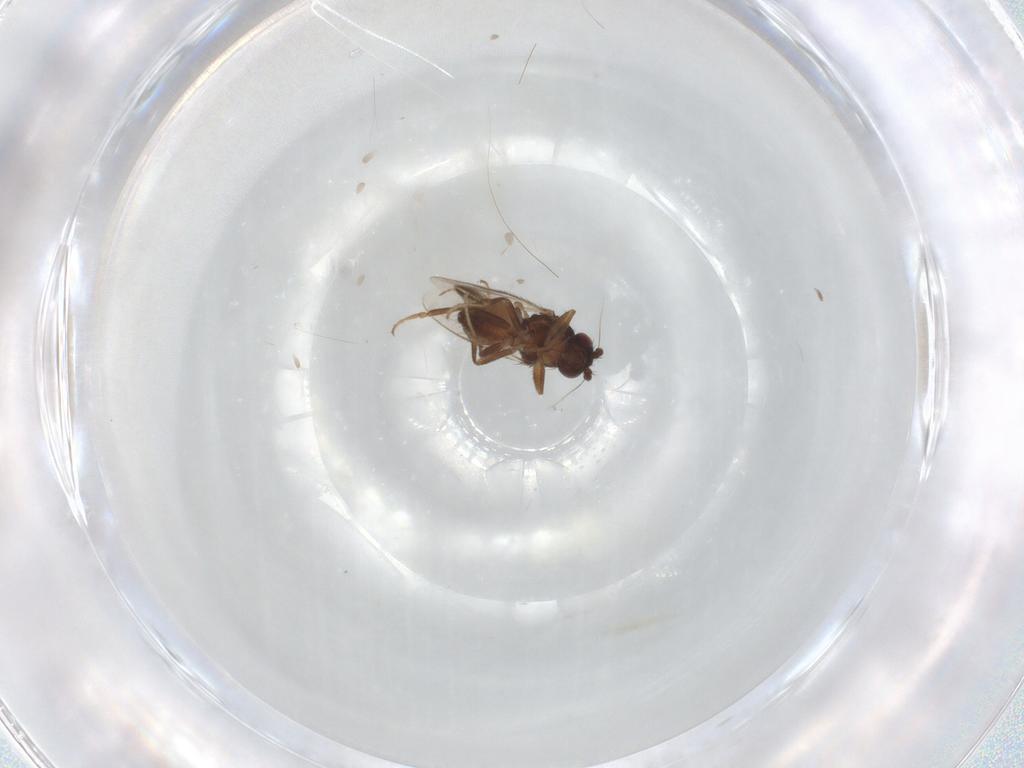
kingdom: Animalia
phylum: Arthropoda
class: Insecta
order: Diptera
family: Sphaeroceridae
